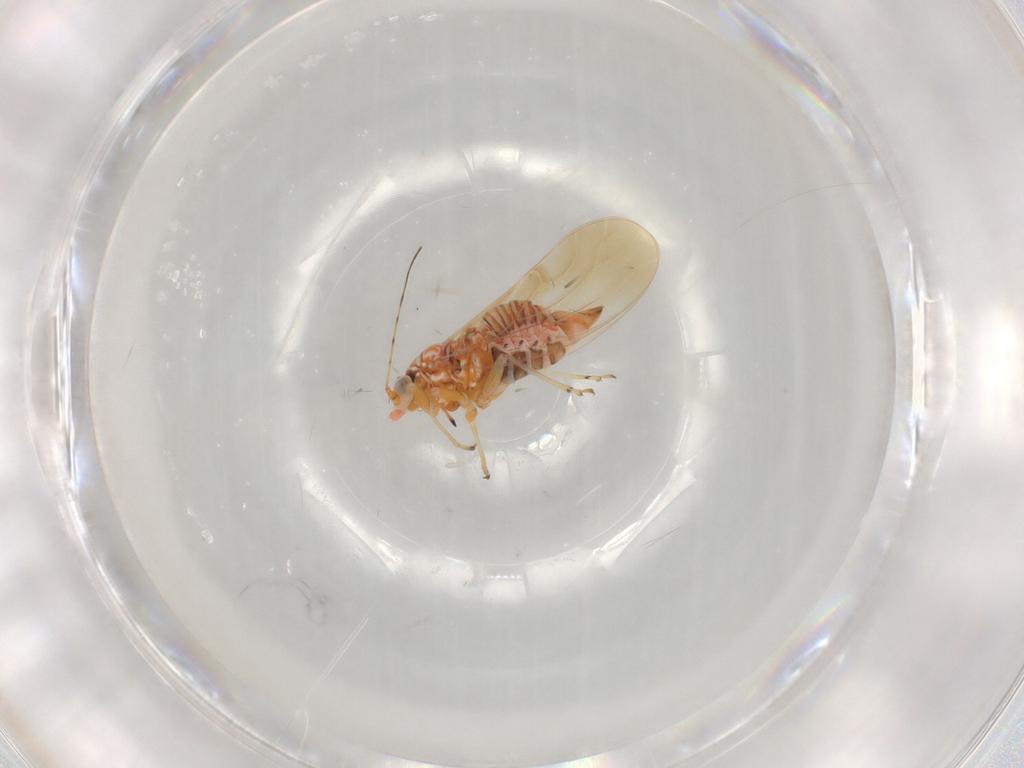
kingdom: Animalia
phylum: Arthropoda
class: Insecta
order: Hemiptera
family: Psyllidae
